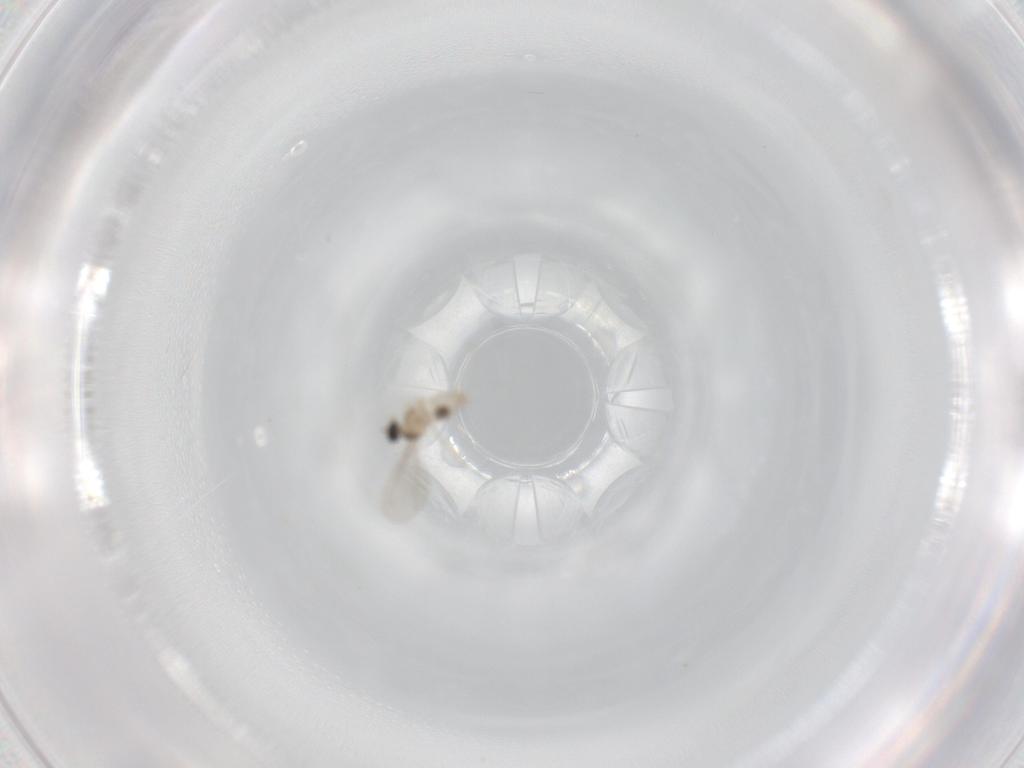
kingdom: Animalia
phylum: Arthropoda
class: Insecta
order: Diptera
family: Cecidomyiidae
